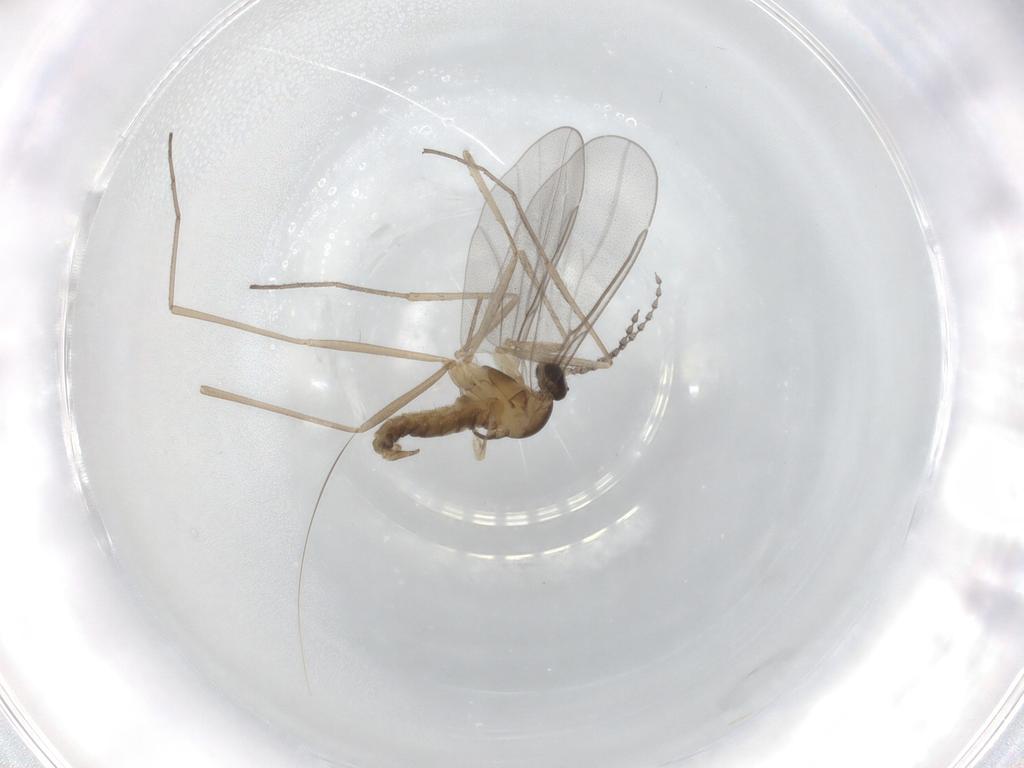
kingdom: Animalia
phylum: Arthropoda
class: Insecta
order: Diptera
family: Cecidomyiidae
